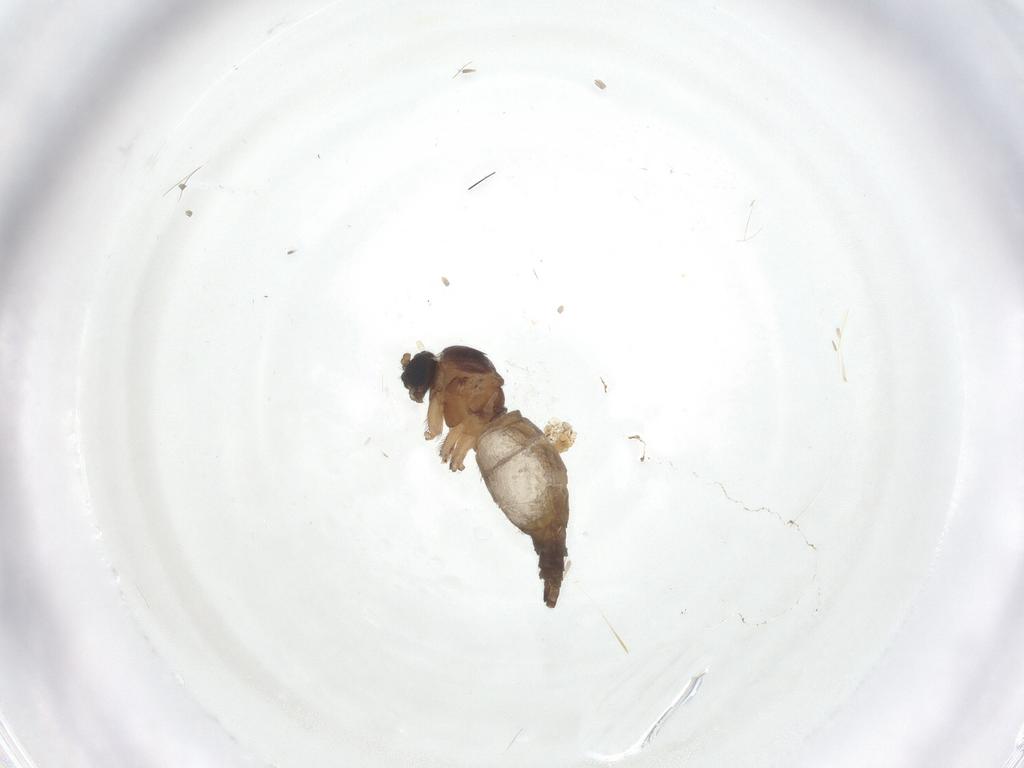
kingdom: Animalia
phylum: Arthropoda
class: Insecta
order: Diptera
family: Sciaridae
